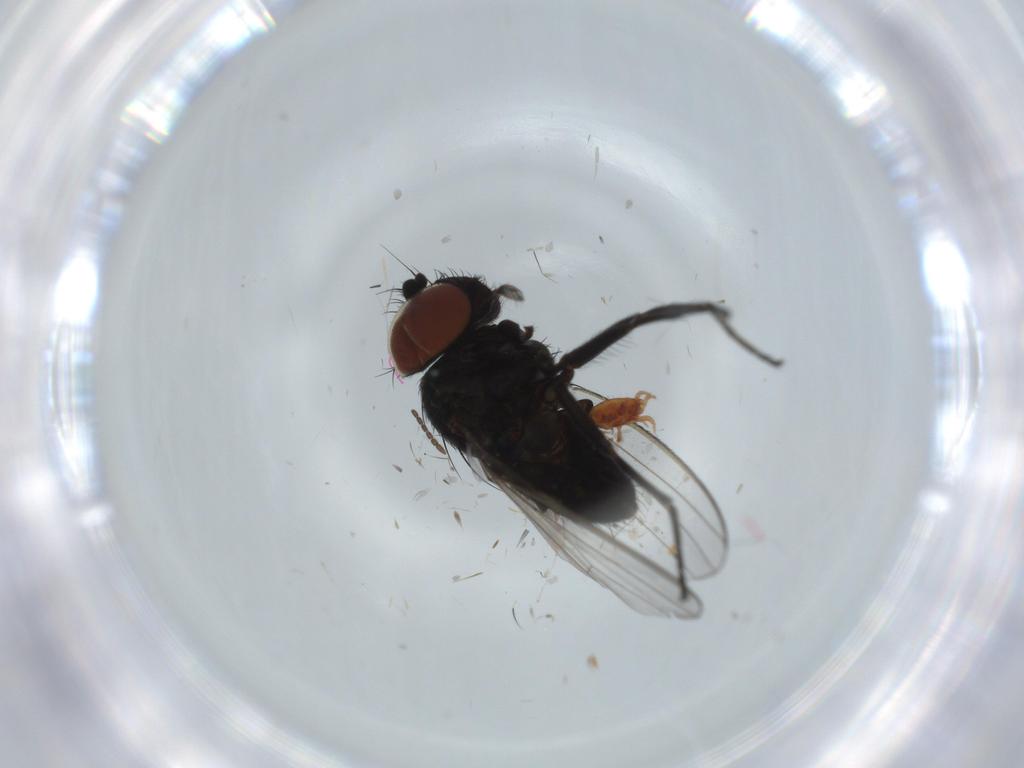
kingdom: Animalia
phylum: Arthropoda
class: Insecta
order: Diptera
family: Milichiidae
